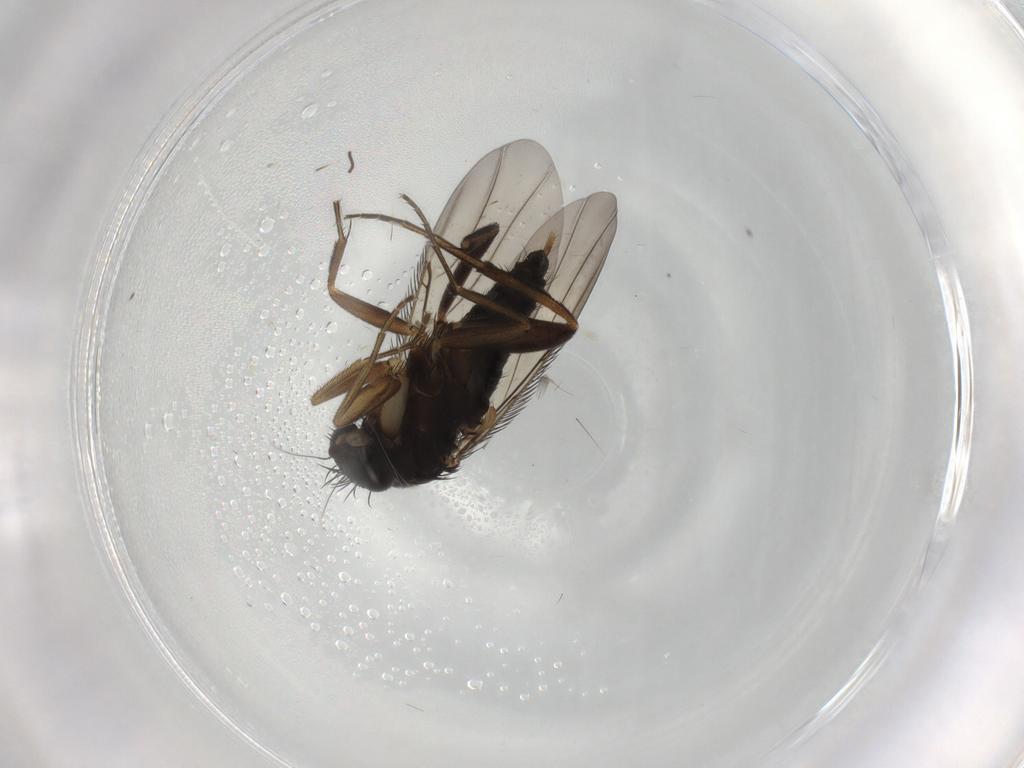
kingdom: Animalia
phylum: Arthropoda
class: Insecta
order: Diptera
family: Phoridae
